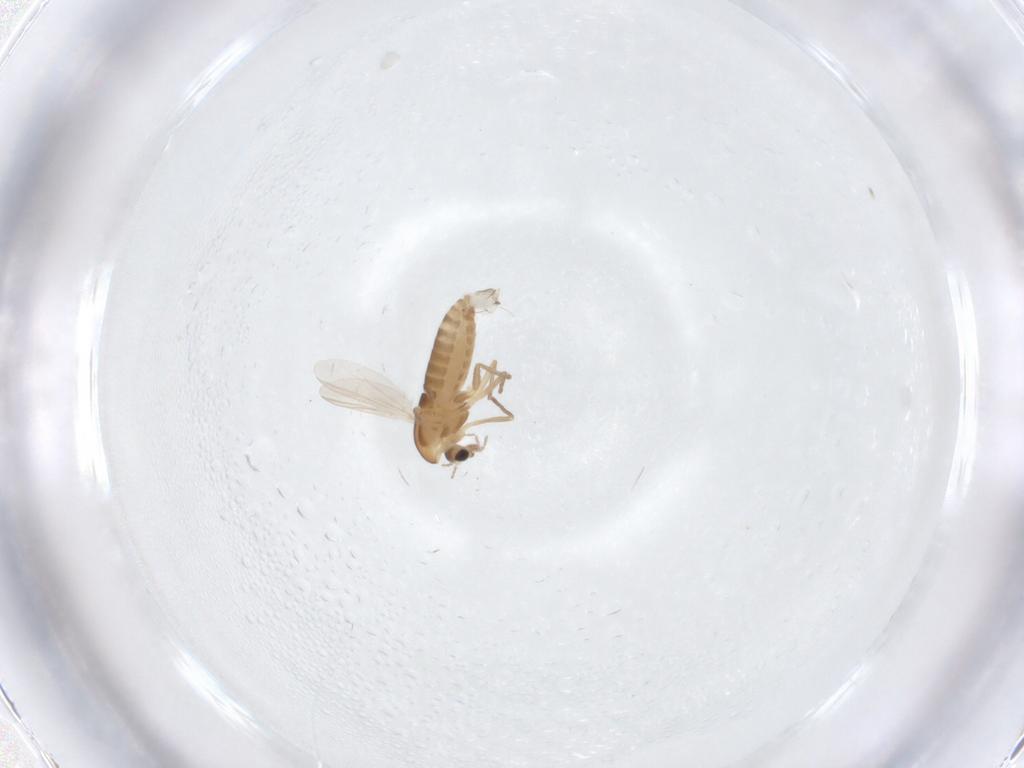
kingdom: Animalia
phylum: Arthropoda
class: Insecta
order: Diptera
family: Chironomidae
